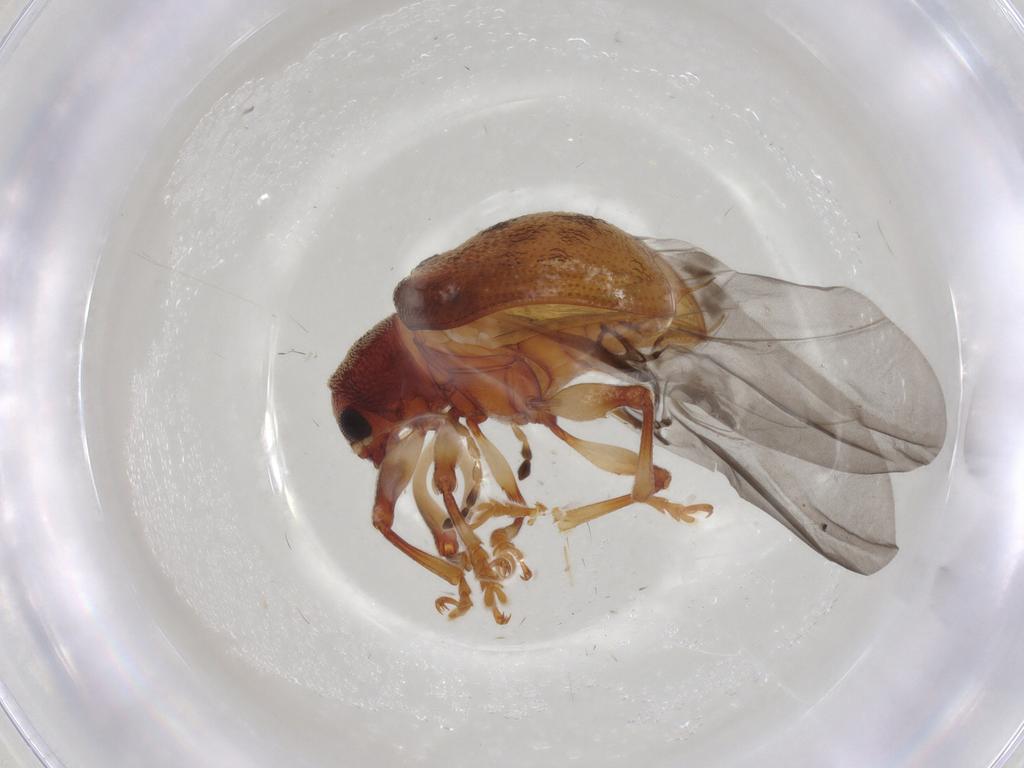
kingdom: Animalia
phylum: Arthropoda
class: Insecta
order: Coleoptera
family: Chrysomelidae
